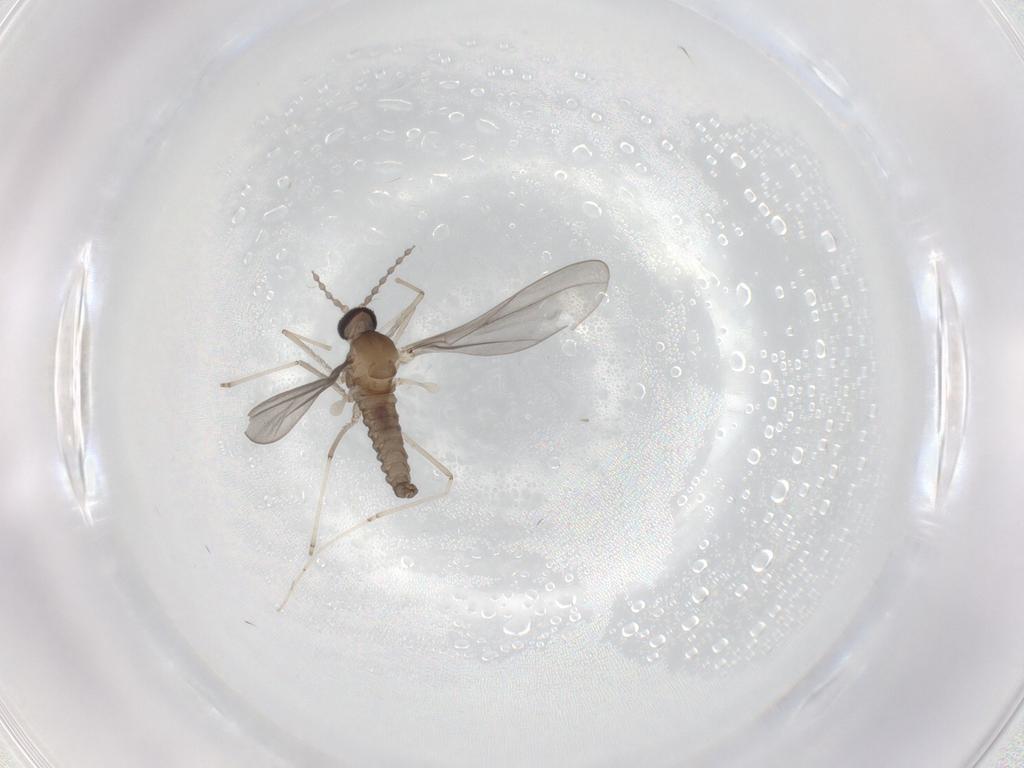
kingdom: Animalia
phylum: Arthropoda
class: Insecta
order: Diptera
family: Cecidomyiidae
